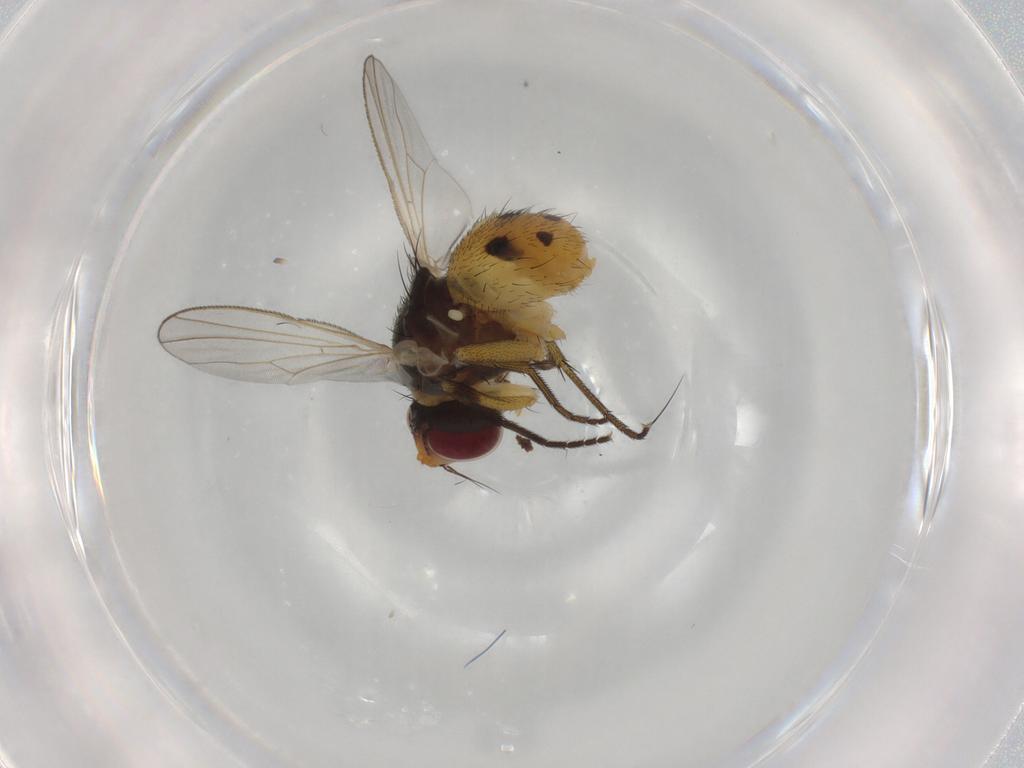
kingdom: Animalia
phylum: Arthropoda
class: Insecta
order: Diptera
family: Muscidae
